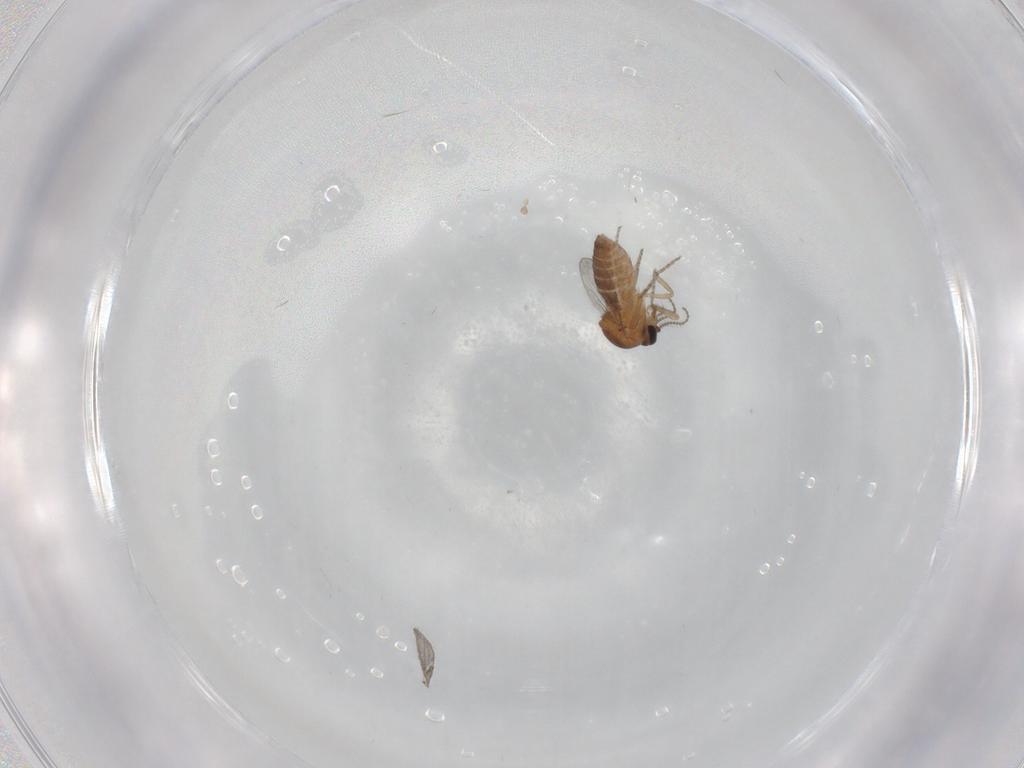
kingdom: Animalia
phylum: Arthropoda
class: Insecta
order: Diptera
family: Ceratopogonidae
